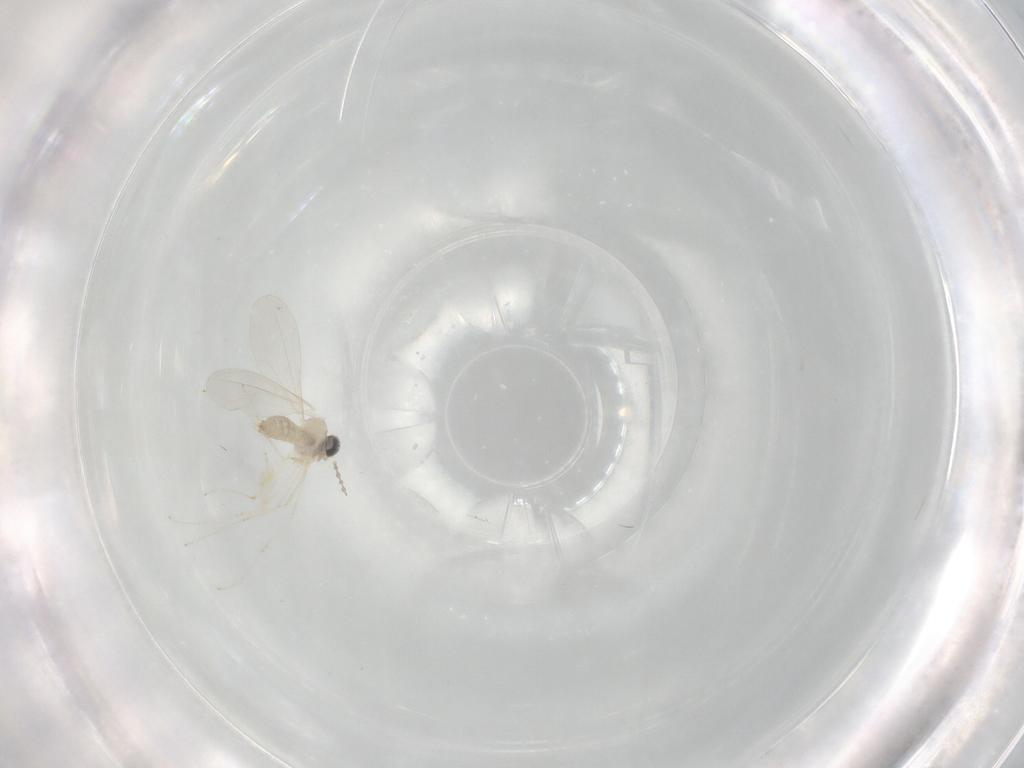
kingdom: Animalia
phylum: Arthropoda
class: Insecta
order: Diptera
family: Cecidomyiidae
